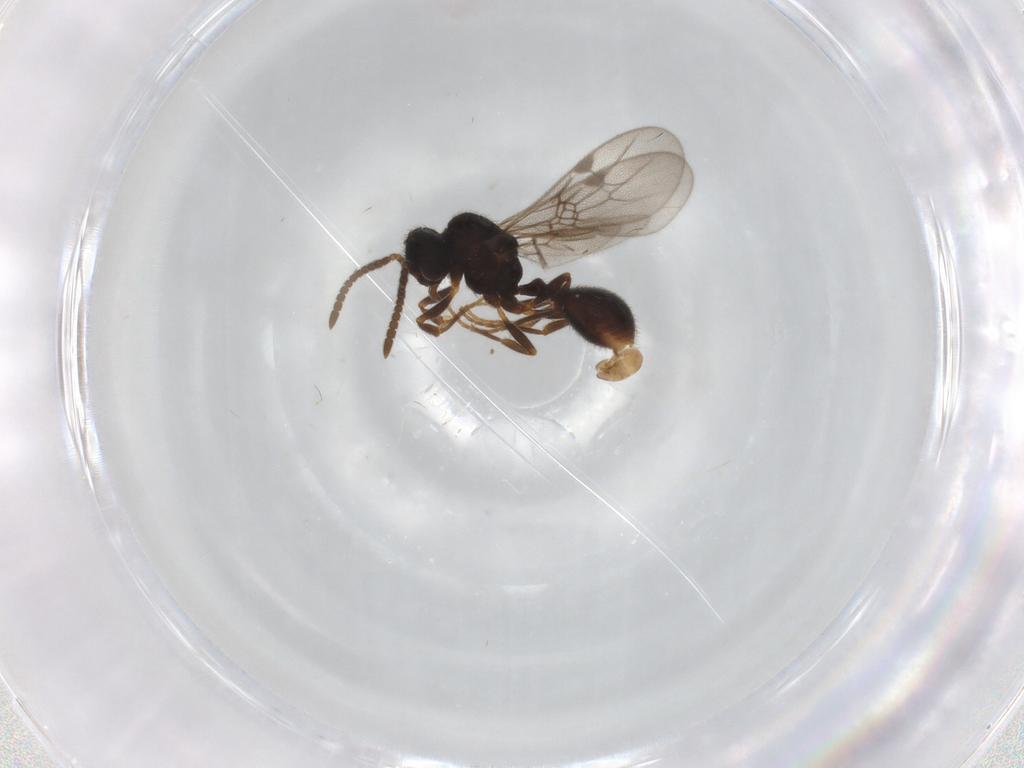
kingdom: Animalia
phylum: Arthropoda
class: Insecta
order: Hymenoptera
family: Formicidae
